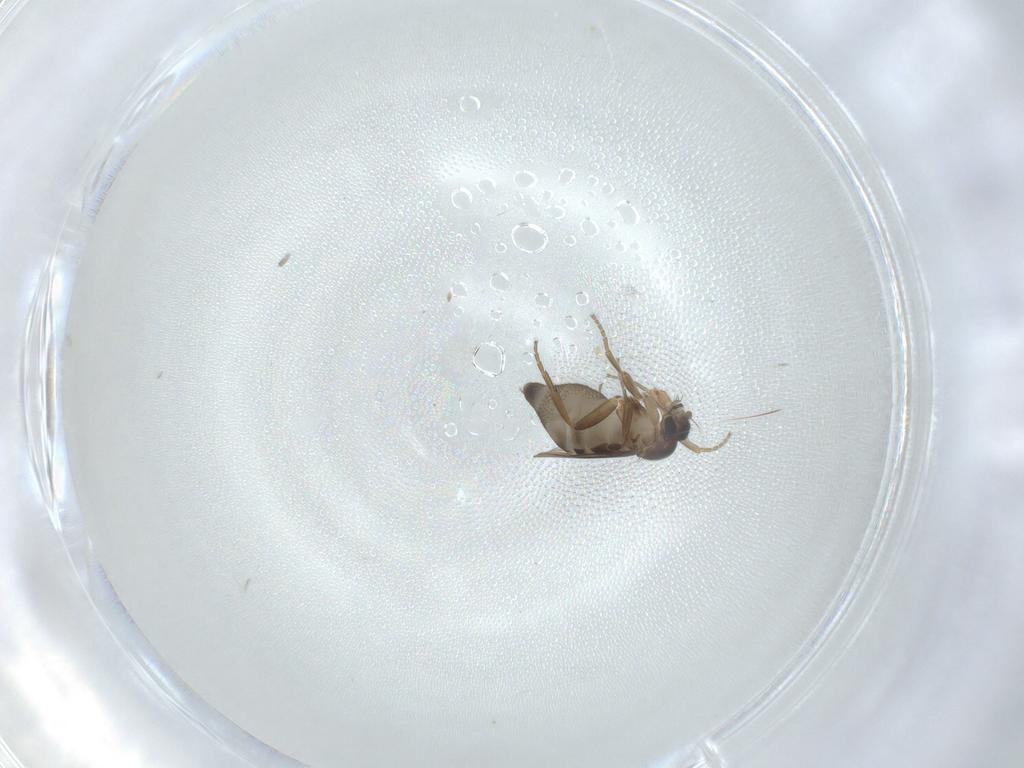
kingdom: Animalia
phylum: Arthropoda
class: Insecta
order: Diptera
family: Phoridae
